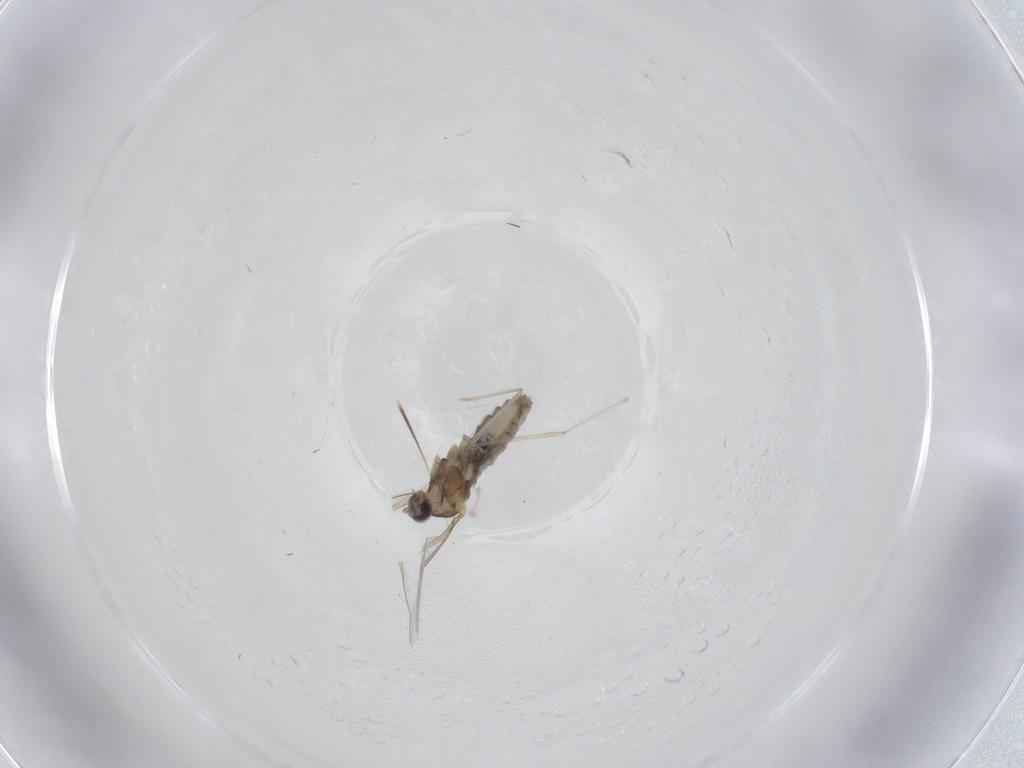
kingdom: Animalia
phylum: Arthropoda
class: Insecta
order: Diptera
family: Cecidomyiidae
